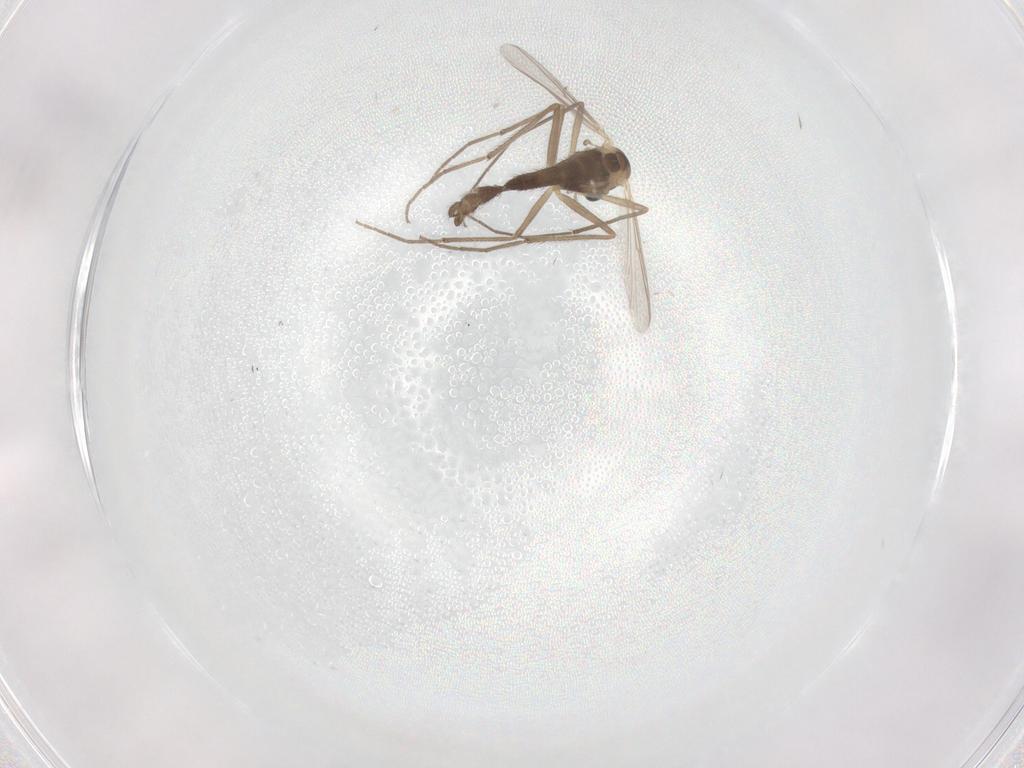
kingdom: Animalia
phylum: Arthropoda
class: Insecta
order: Diptera
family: Chironomidae
